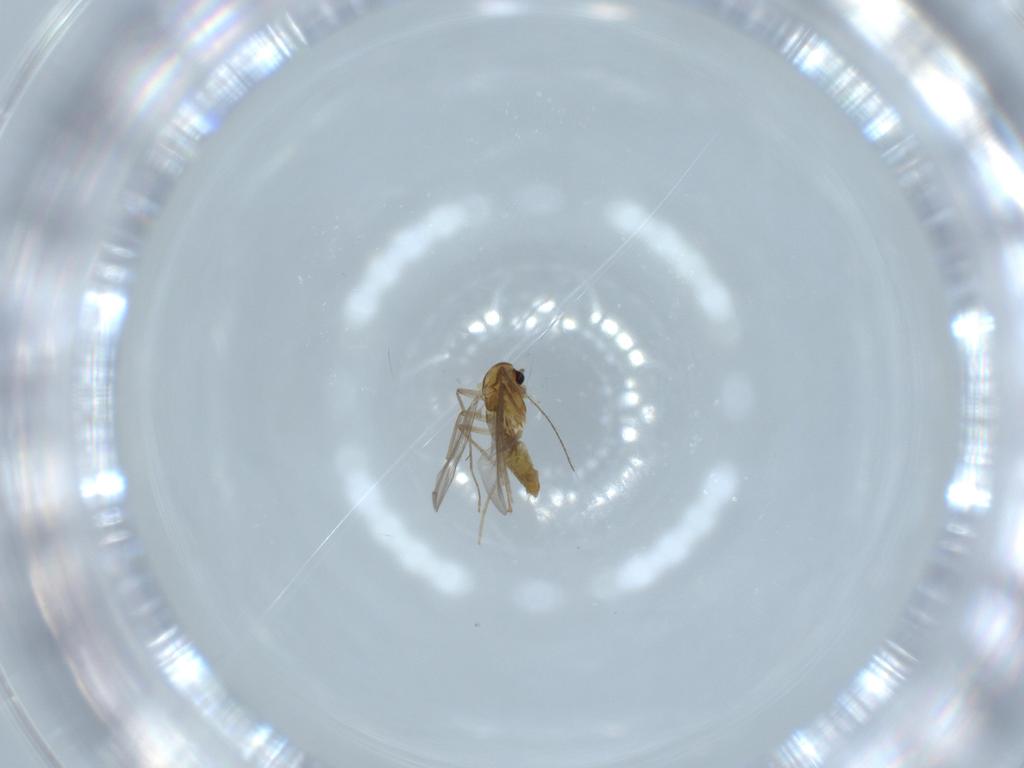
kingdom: Animalia
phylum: Arthropoda
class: Insecta
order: Diptera
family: Chironomidae
